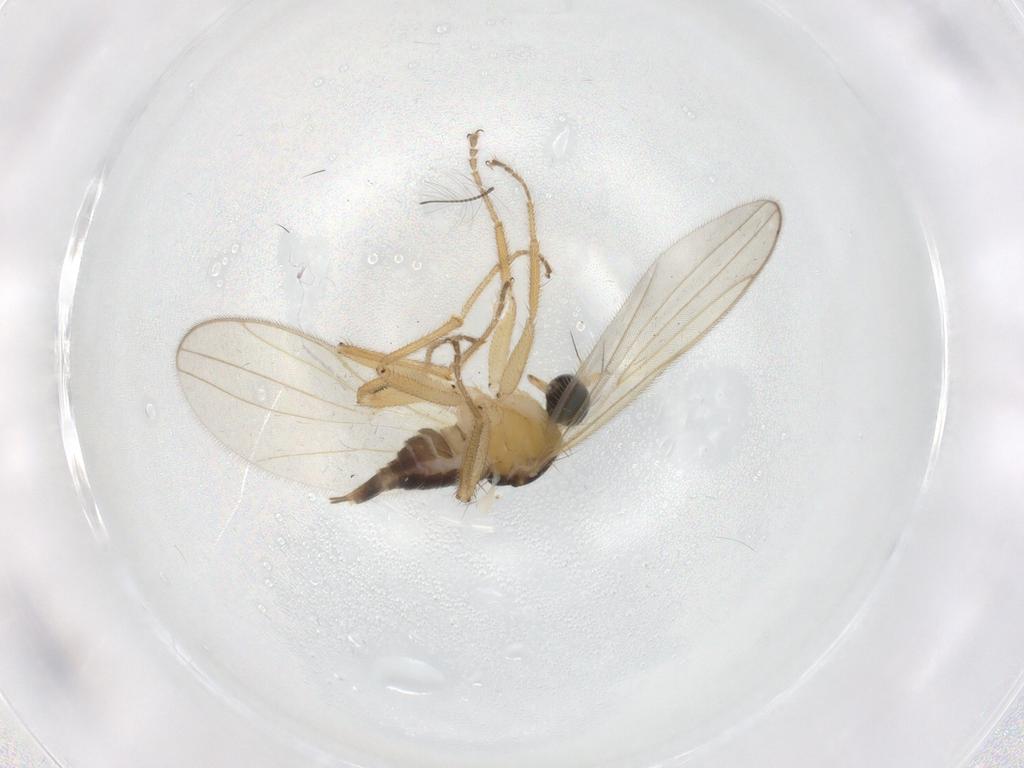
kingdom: Animalia
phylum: Arthropoda
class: Insecta
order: Diptera
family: Hybotidae
